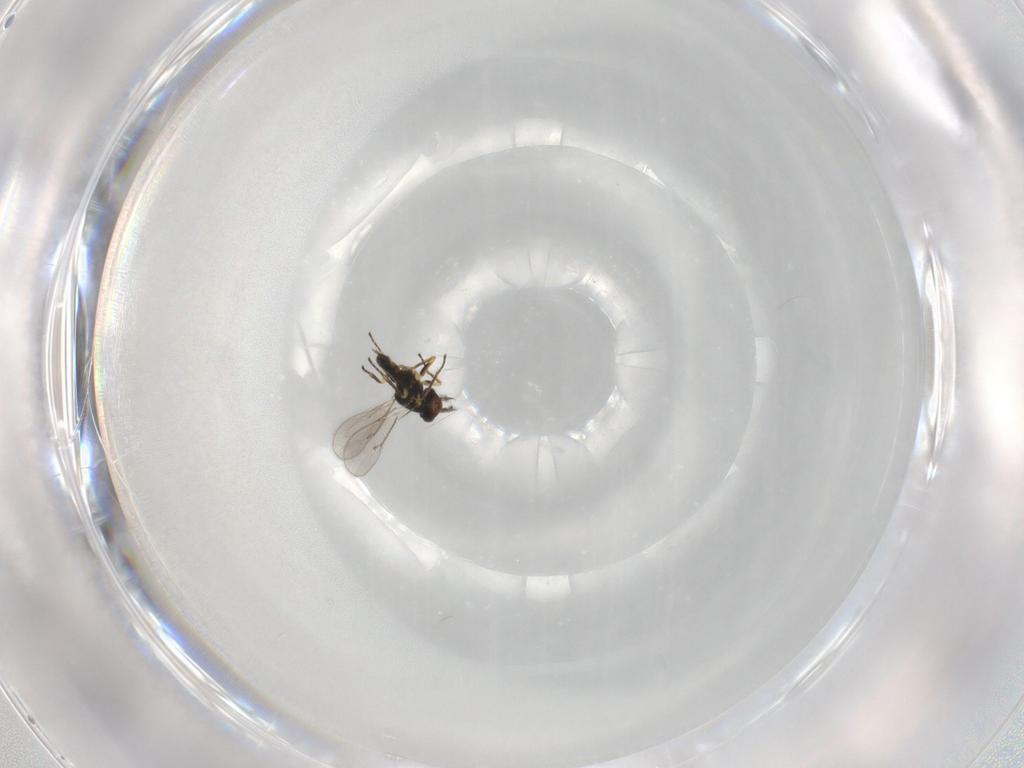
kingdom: Animalia
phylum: Arthropoda
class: Insecta
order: Hymenoptera
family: Eulophidae
